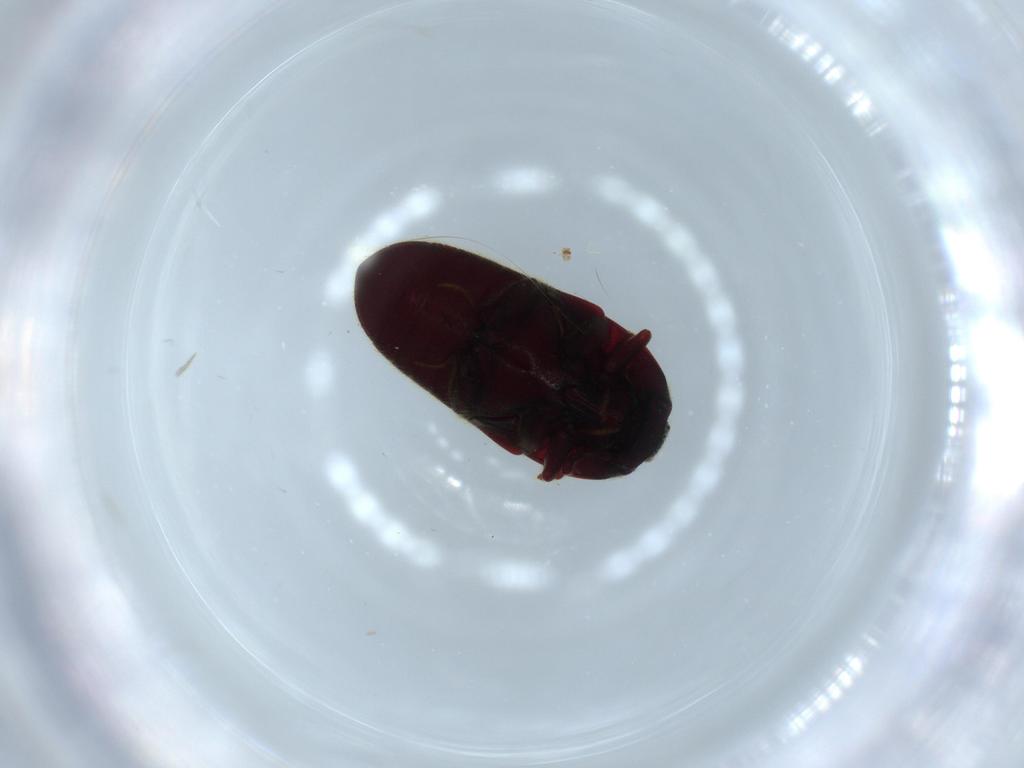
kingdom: Animalia
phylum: Arthropoda
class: Insecta
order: Coleoptera
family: Throscidae
